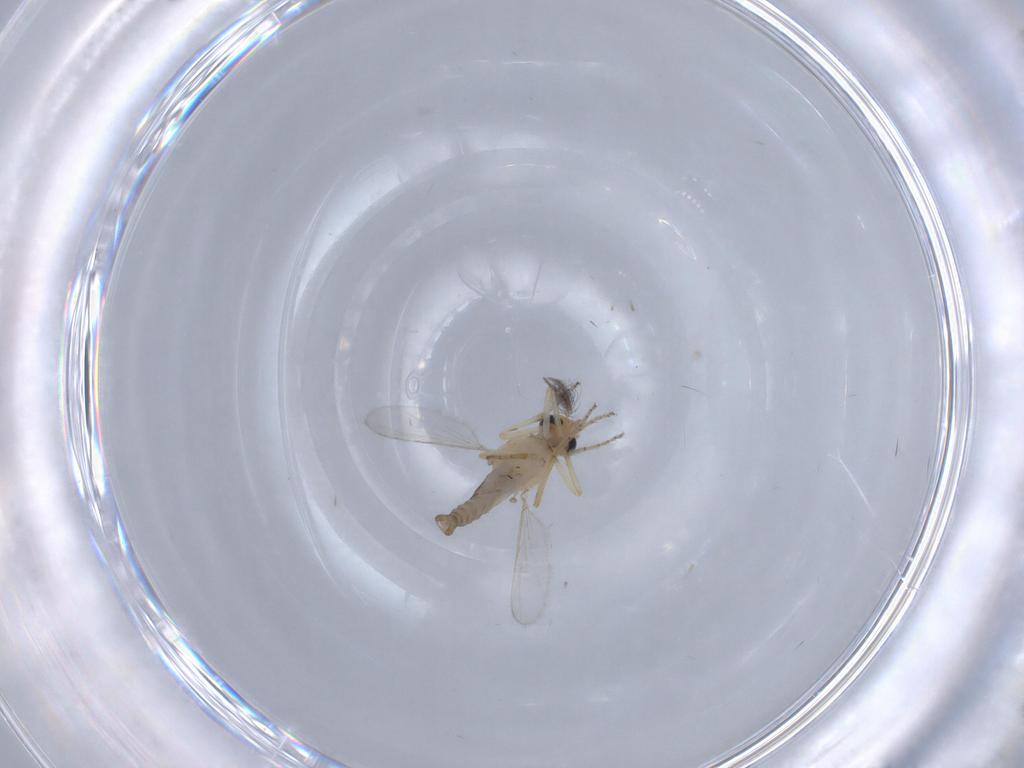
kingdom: Animalia
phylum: Arthropoda
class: Insecta
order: Diptera
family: Ceratopogonidae
